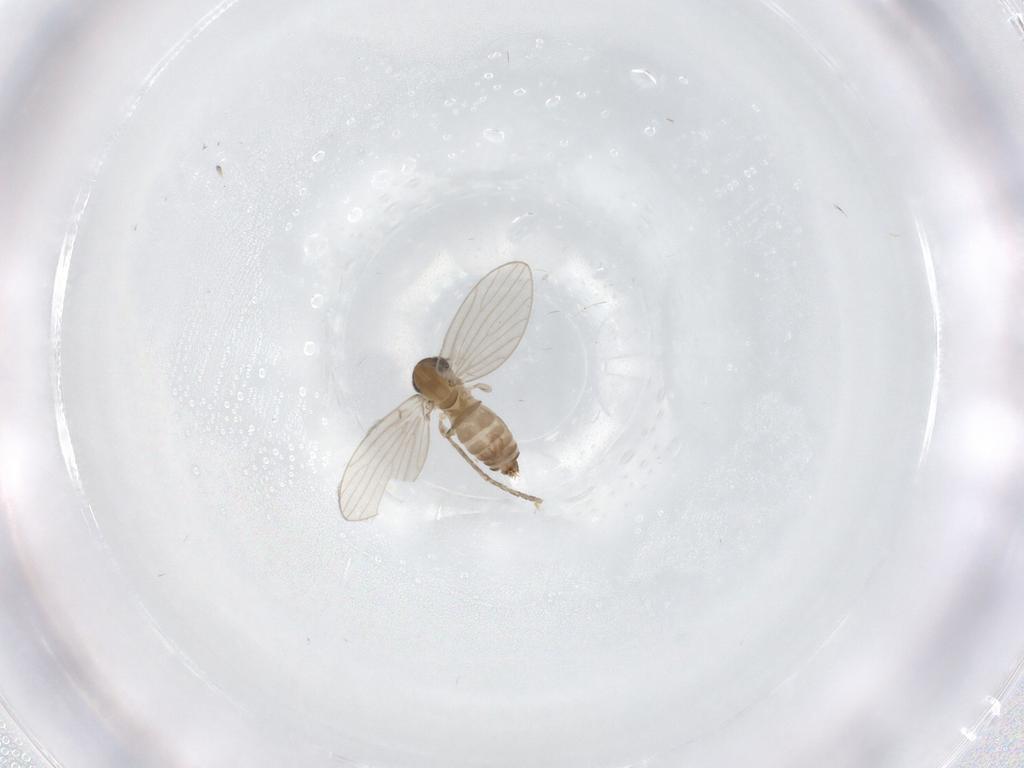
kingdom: Animalia
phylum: Arthropoda
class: Insecta
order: Diptera
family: Psychodidae
